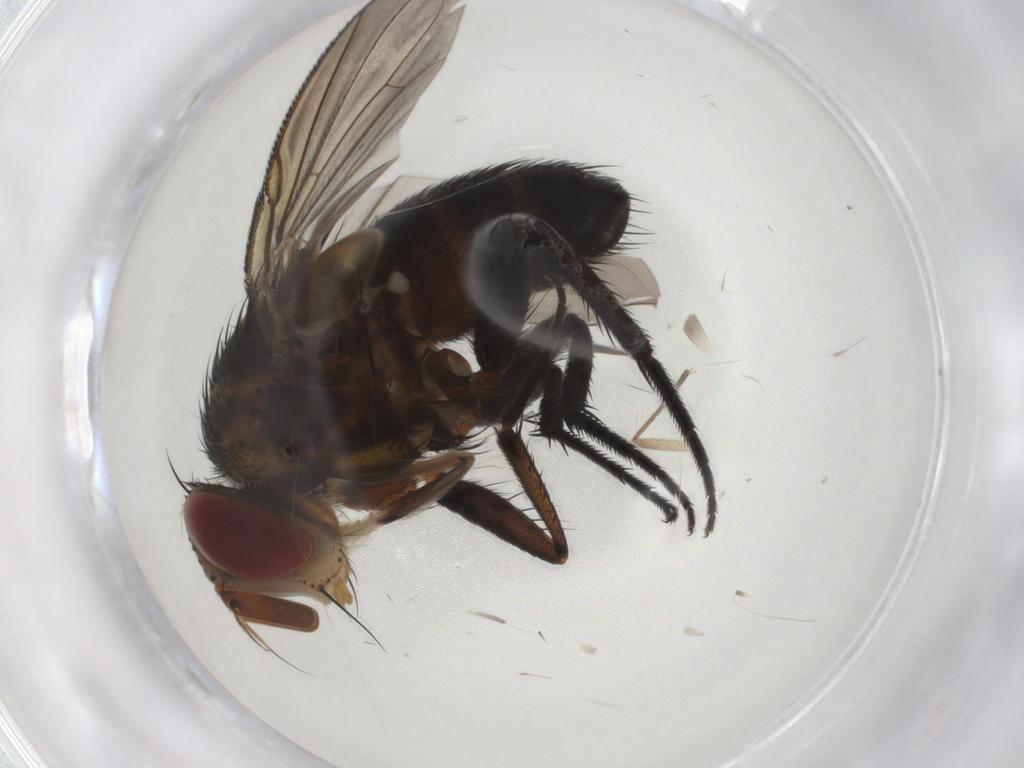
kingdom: Animalia
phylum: Arthropoda
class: Insecta
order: Diptera
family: Tachinidae
